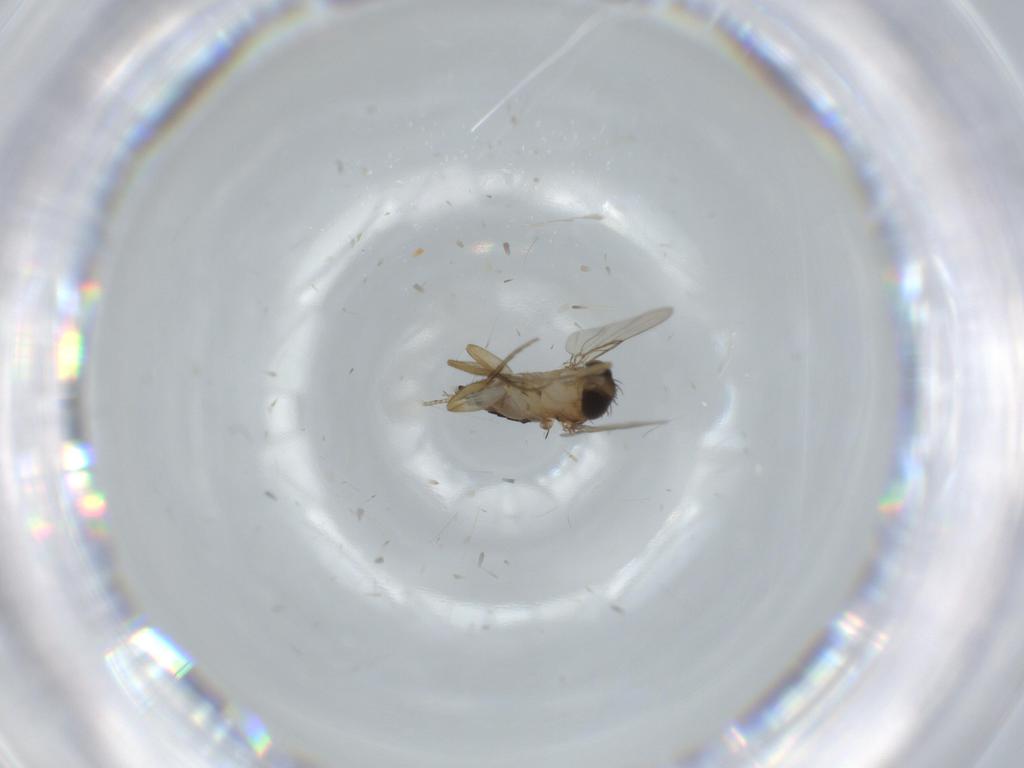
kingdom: Animalia
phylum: Arthropoda
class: Insecta
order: Diptera
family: Phoridae
